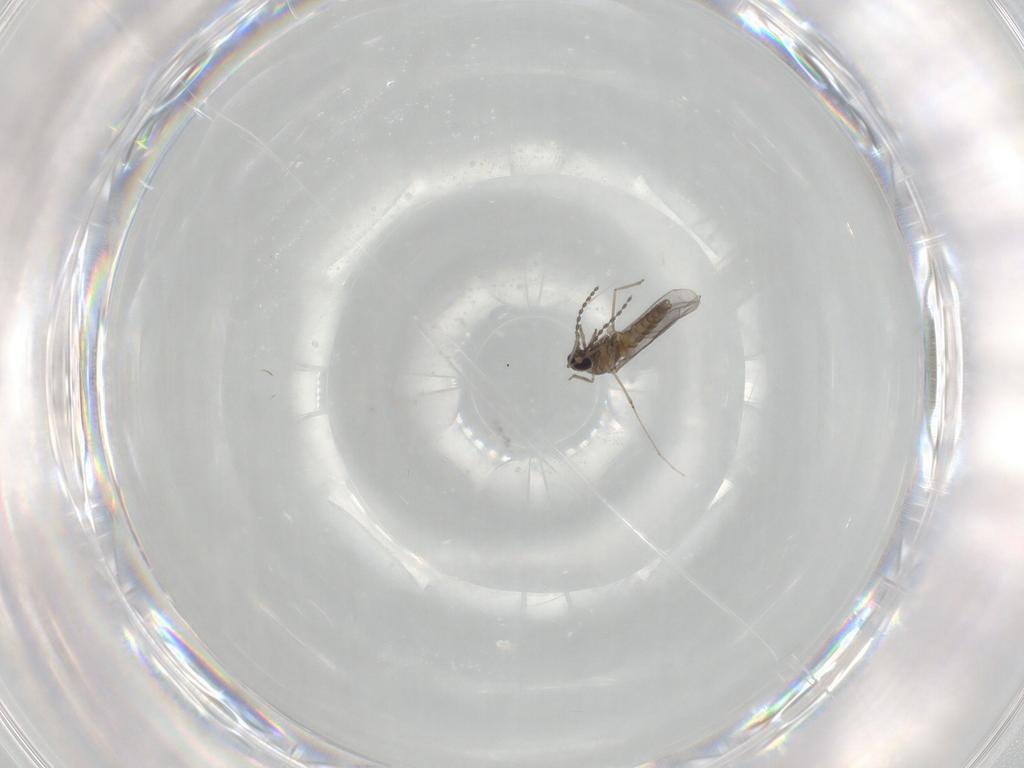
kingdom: Animalia
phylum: Arthropoda
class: Insecta
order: Diptera
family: Cecidomyiidae
